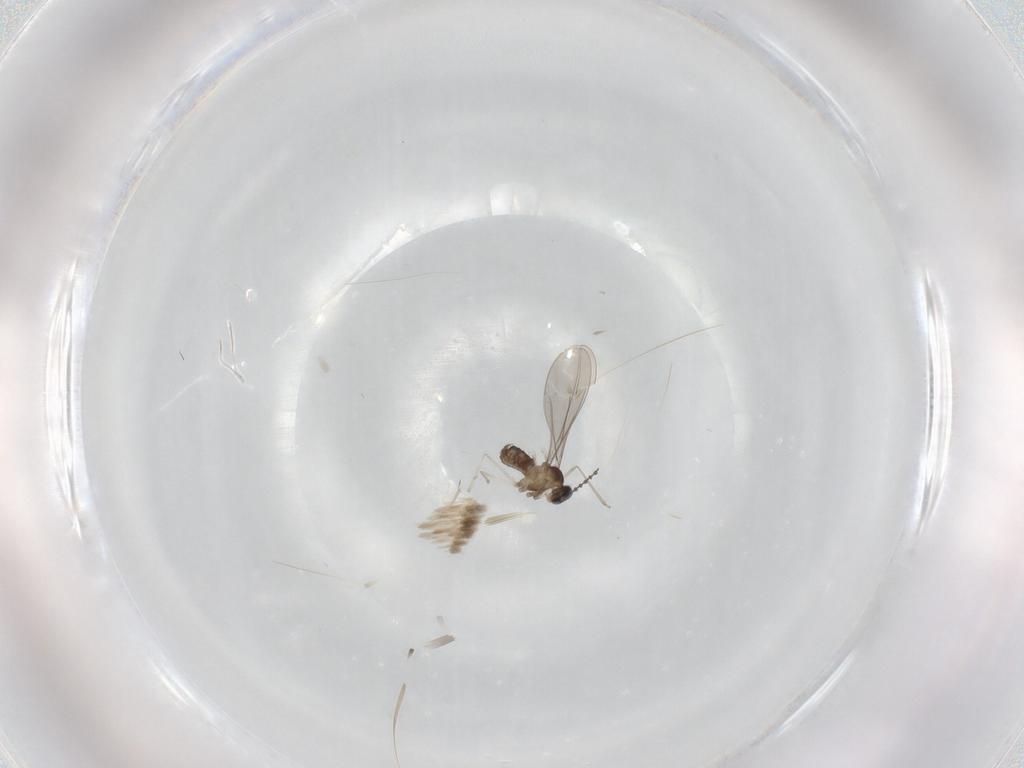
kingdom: Animalia
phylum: Arthropoda
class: Insecta
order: Diptera
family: Cecidomyiidae
